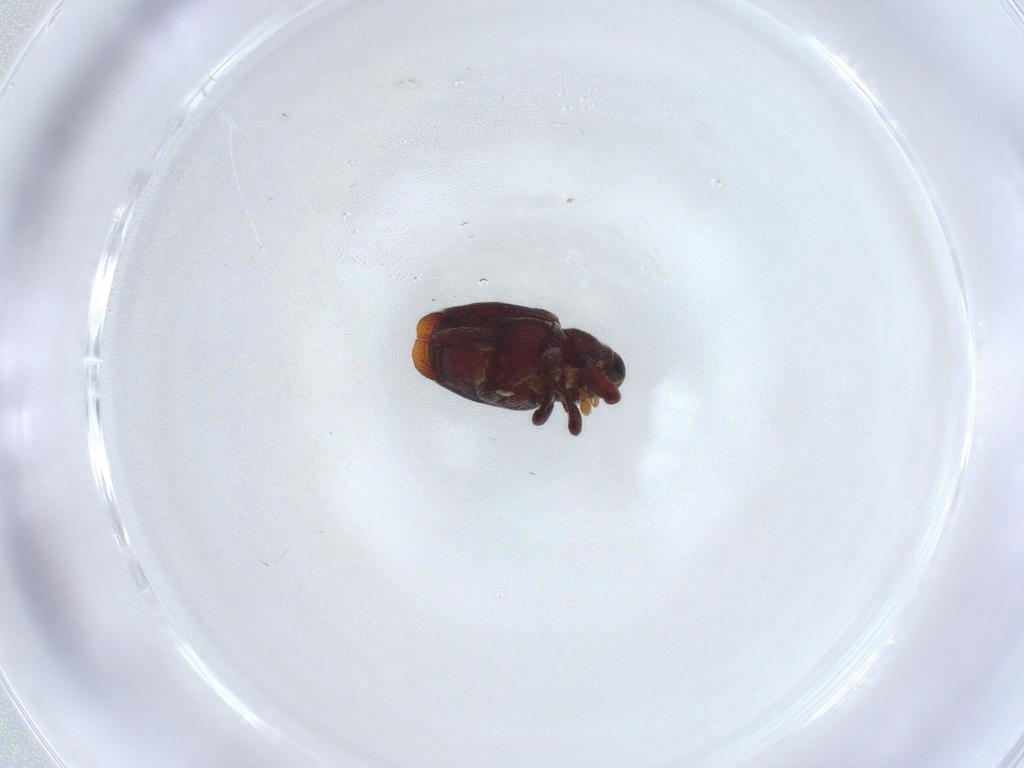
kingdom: Animalia
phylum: Arthropoda
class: Insecta
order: Coleoptera
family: Curculionidae
